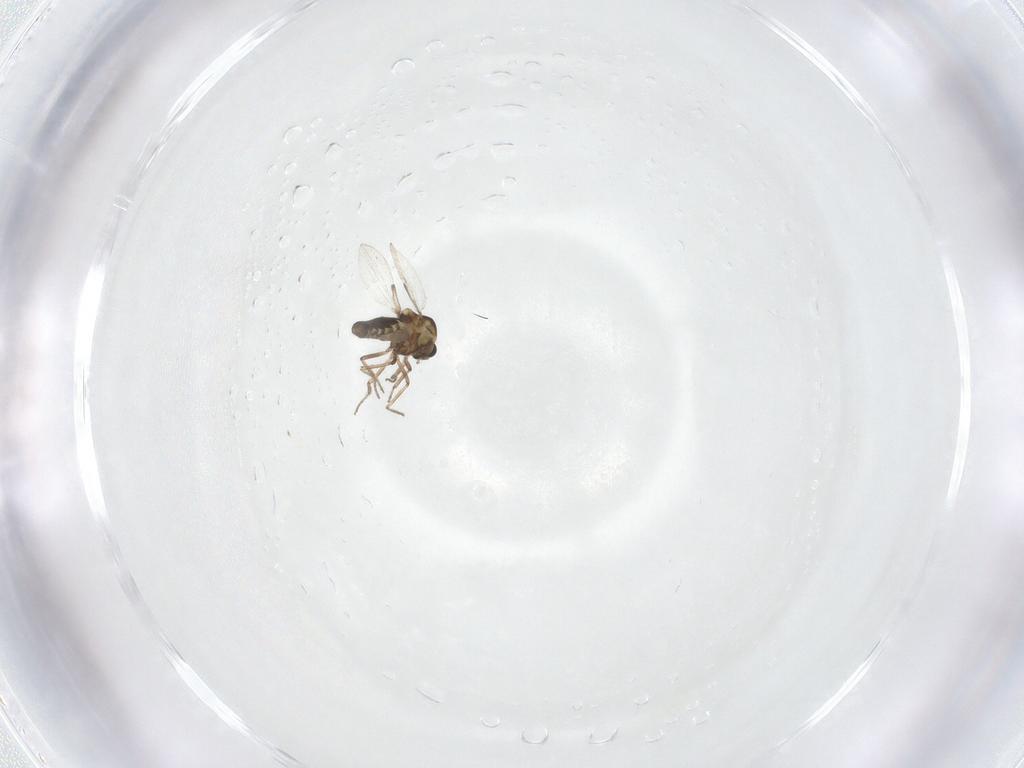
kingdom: Animalia
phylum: Arthropoda
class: Insecta
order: Diptera
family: Ceratopogonidae
